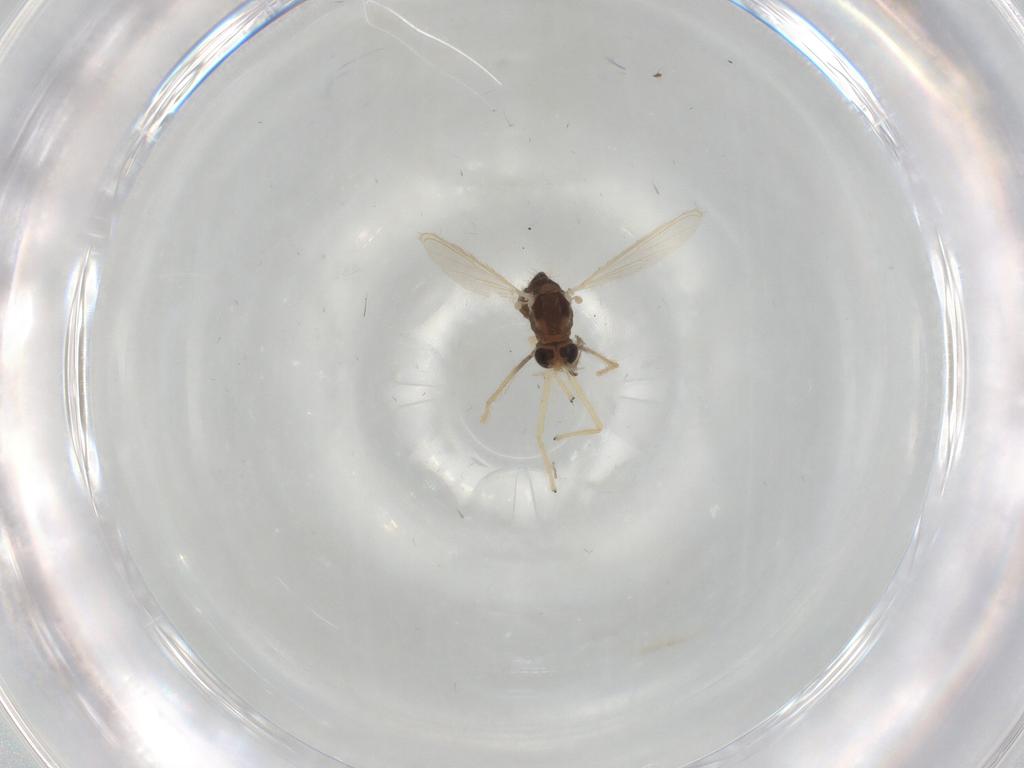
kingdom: Animalia
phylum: Arthropoda
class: Insecta
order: Diptera
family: Chironomidae
